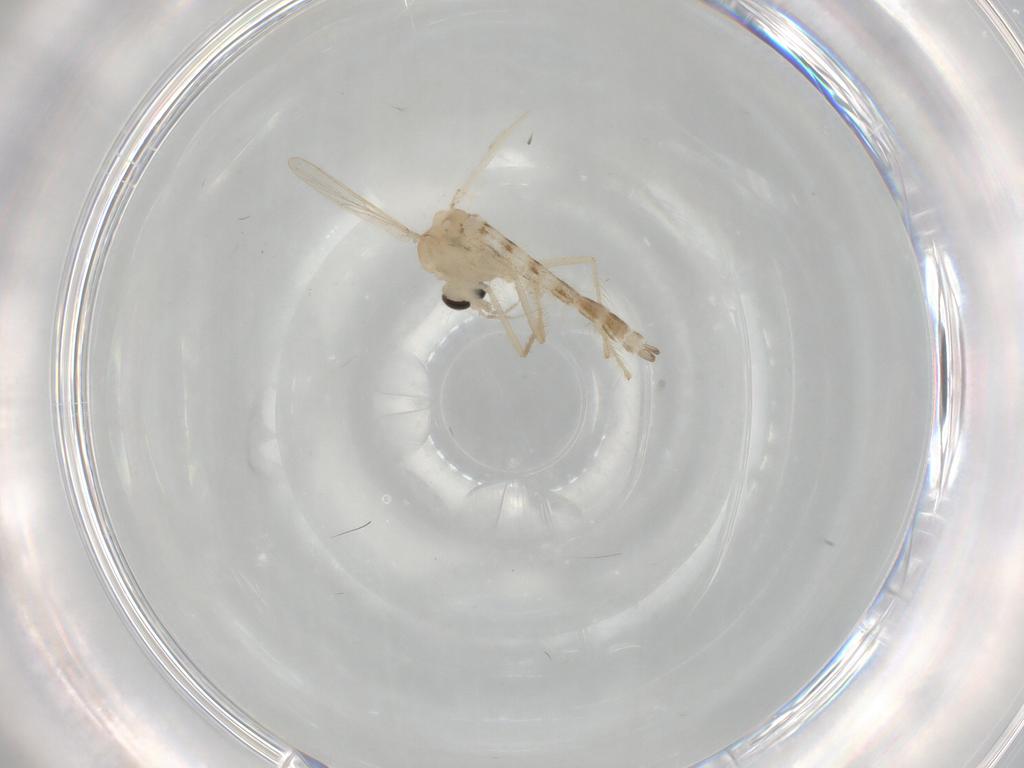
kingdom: Animalia
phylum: Arthropoda
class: Insecta
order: Diptera
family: Chironomidae
